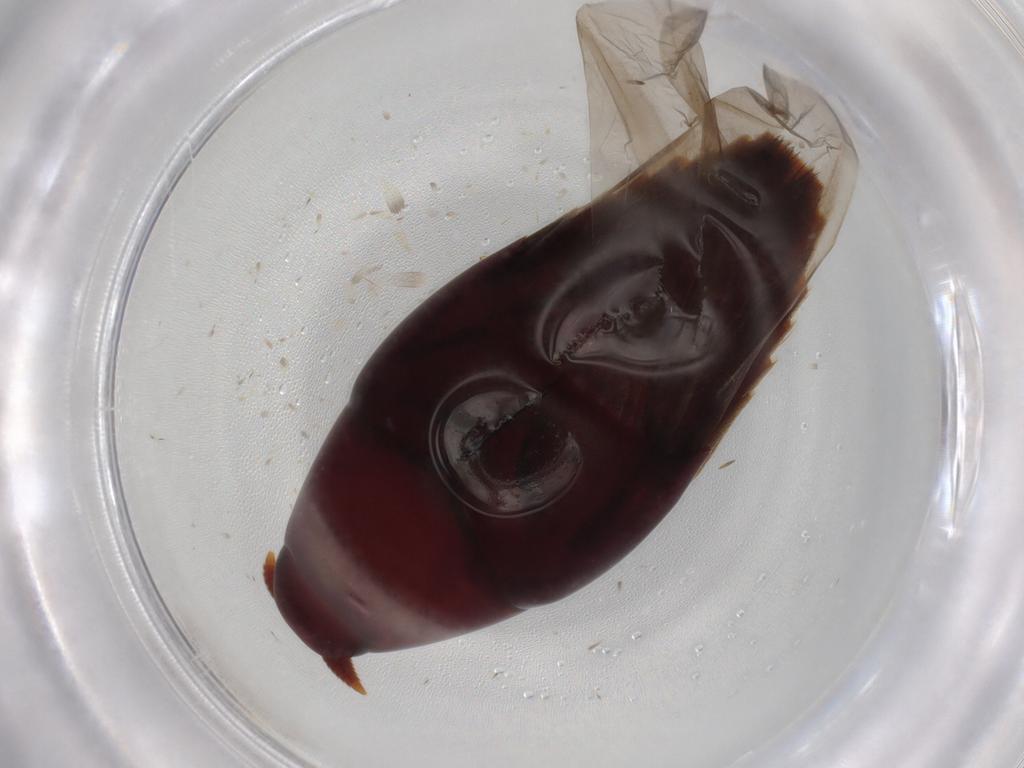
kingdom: Animalia
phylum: Arthropoda
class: Insecta
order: Coleoptera
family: Staphylinidae
